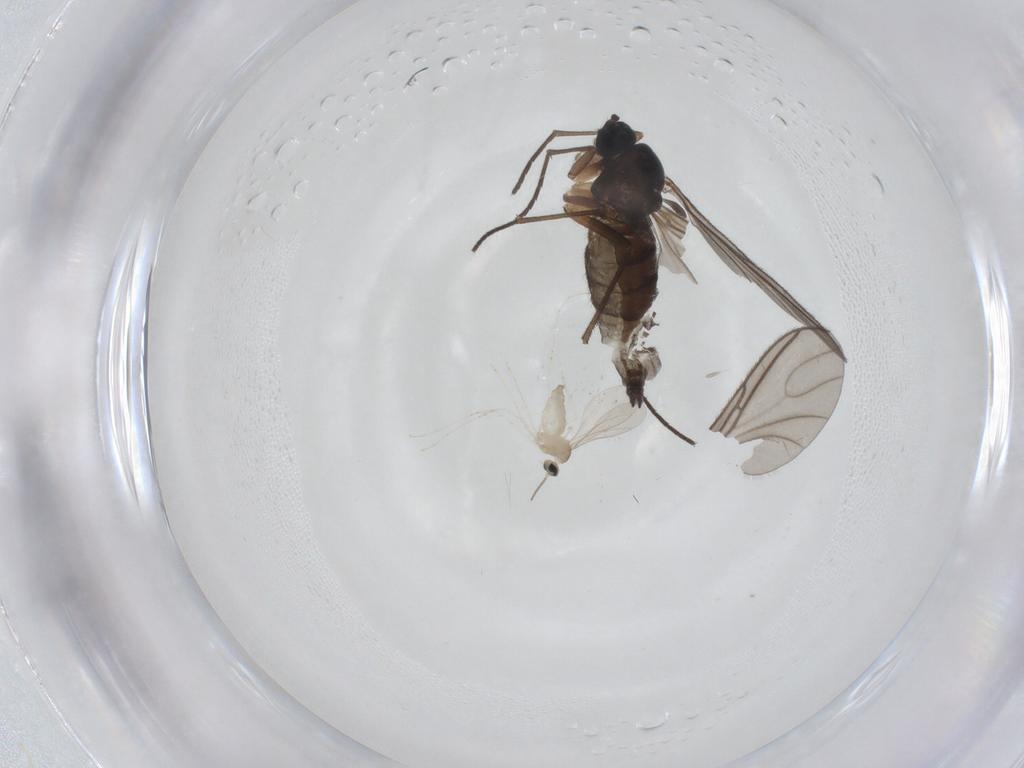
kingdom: Animalia
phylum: Arthropoda
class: Insecta
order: Diptera
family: Sciaridae
